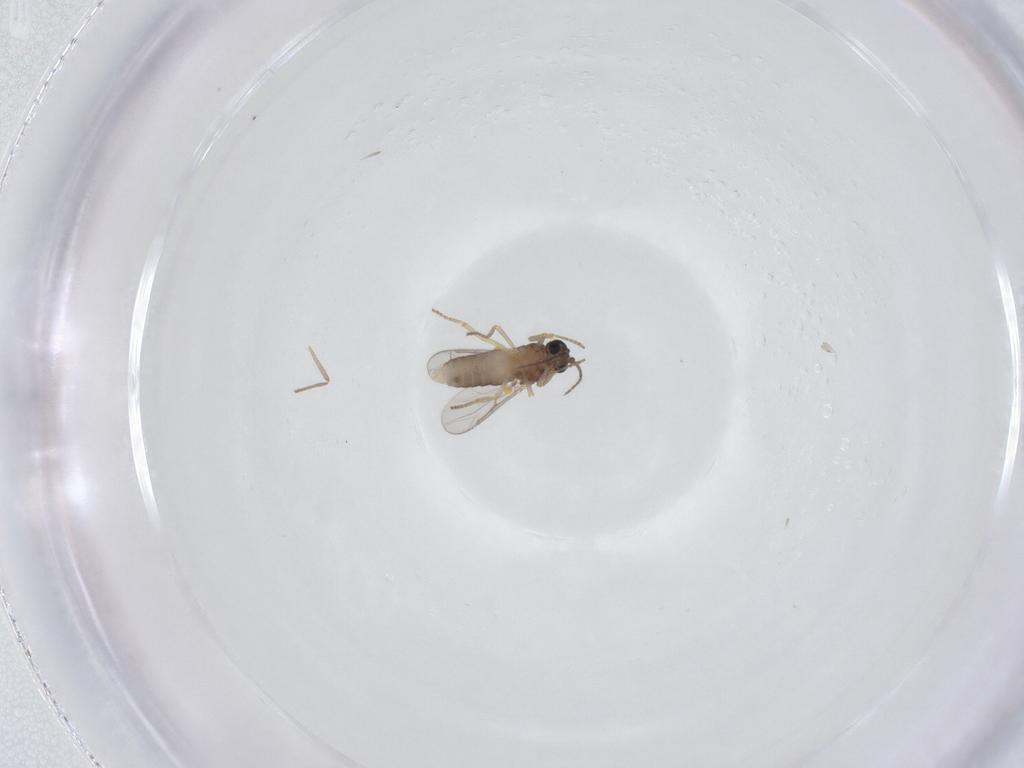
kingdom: Animalia
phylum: Arthropoda
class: Insecta
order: Diptera
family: Ceratopogonidae
